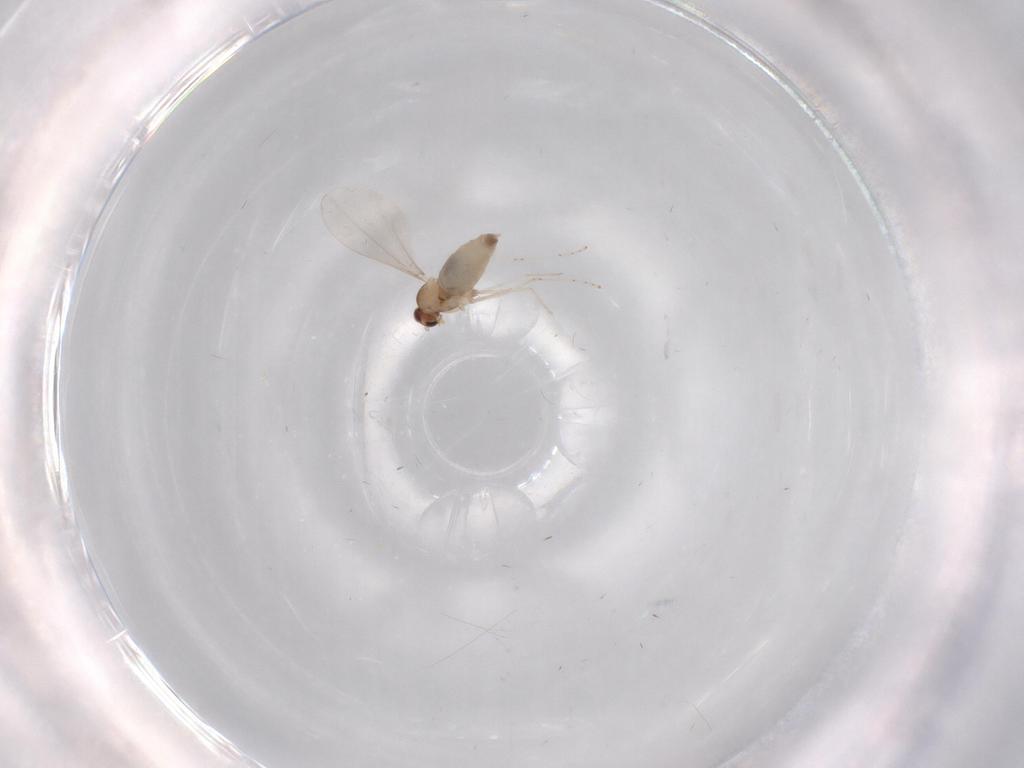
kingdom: Animalia
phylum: Arthropoda
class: Insecta
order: Diptera
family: Cecidomyiidae
